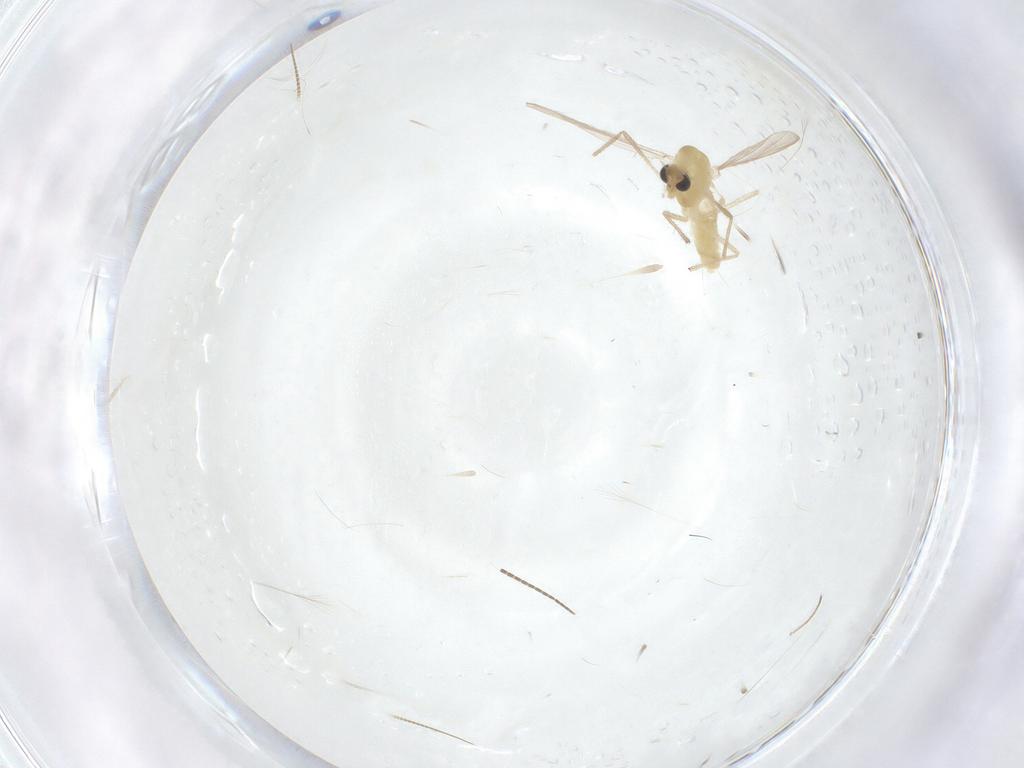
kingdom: Animalia
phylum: Arthropoda
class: Insecta
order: Diptera
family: Chironomidae
